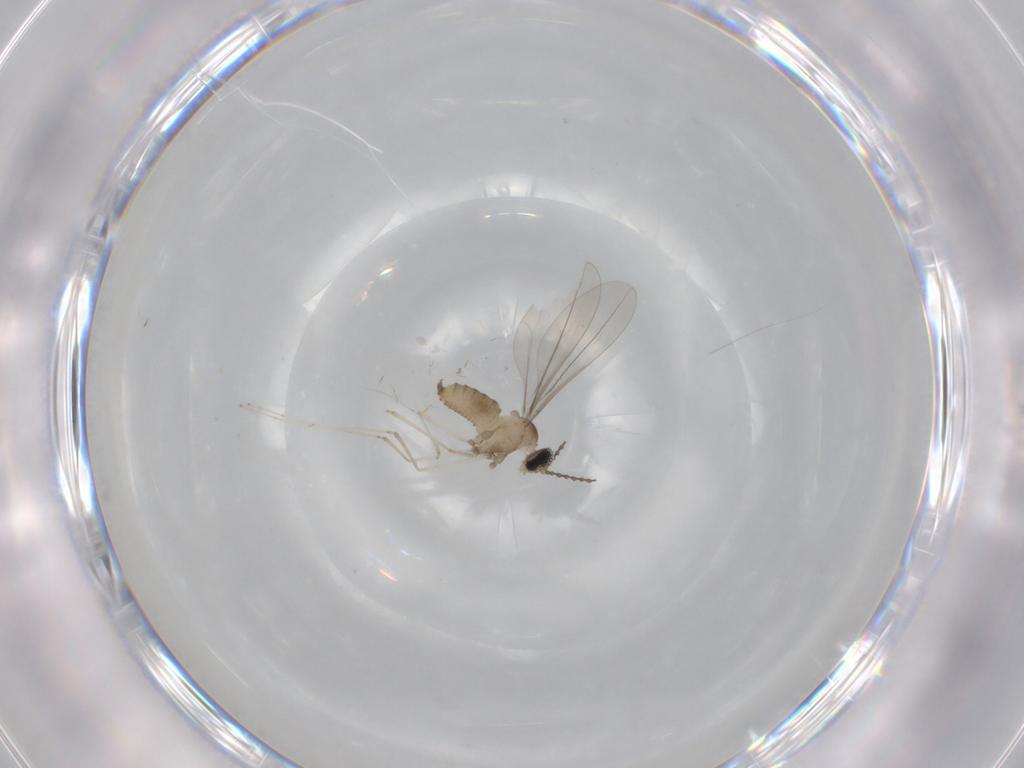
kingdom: Animalia
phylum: Arthropoda
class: Insecta
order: Diptera
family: Cecidomyiidae
